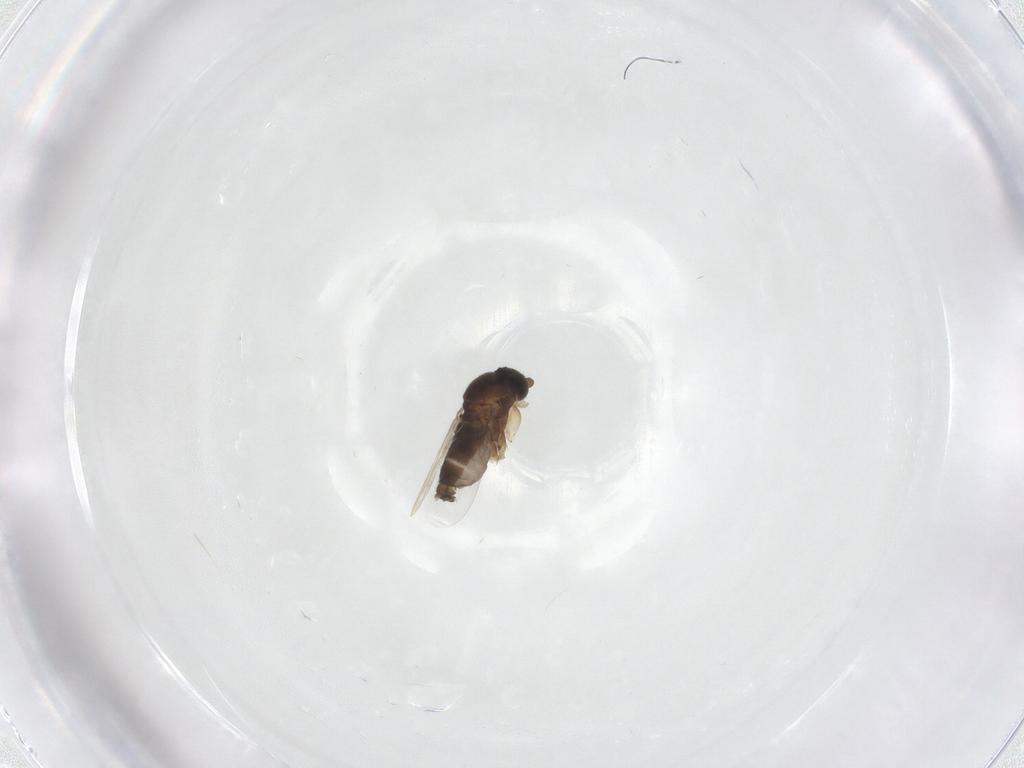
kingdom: Animalia
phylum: Arthropoda
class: Insecta
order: Diptera
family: Phoridae
